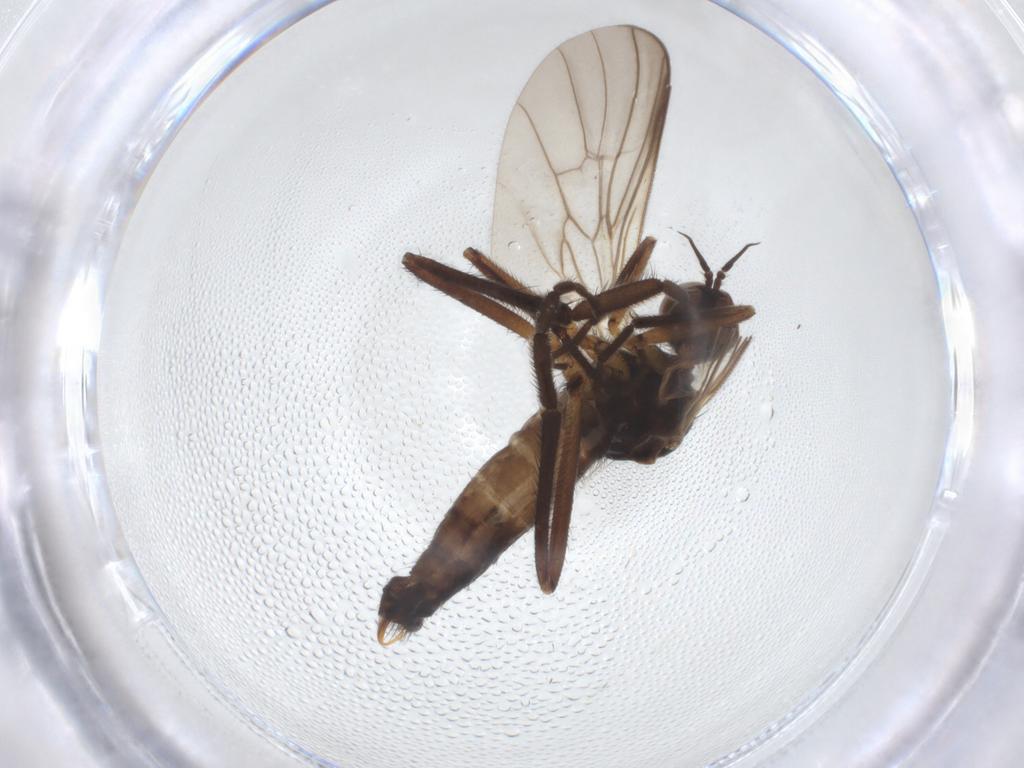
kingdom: Animalia
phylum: Arthropoda
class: Insecta
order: Diptera
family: Empididae
